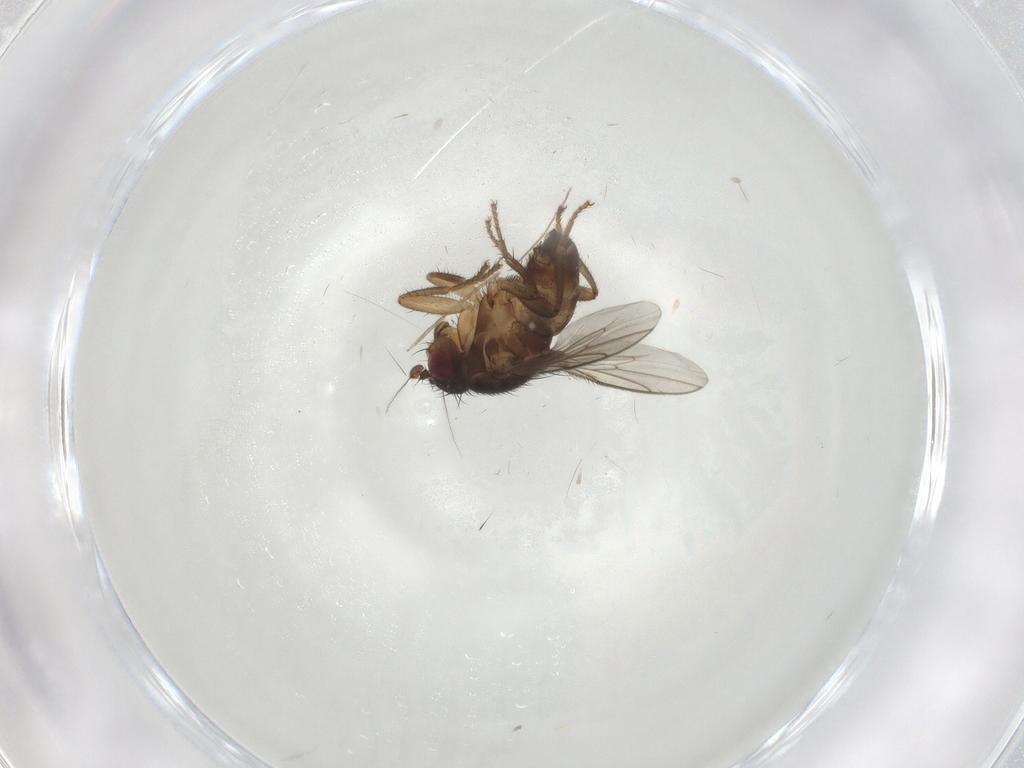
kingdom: Animalia
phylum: Arthropoda
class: Insecta
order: Diptera
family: Sphaeroceridae
